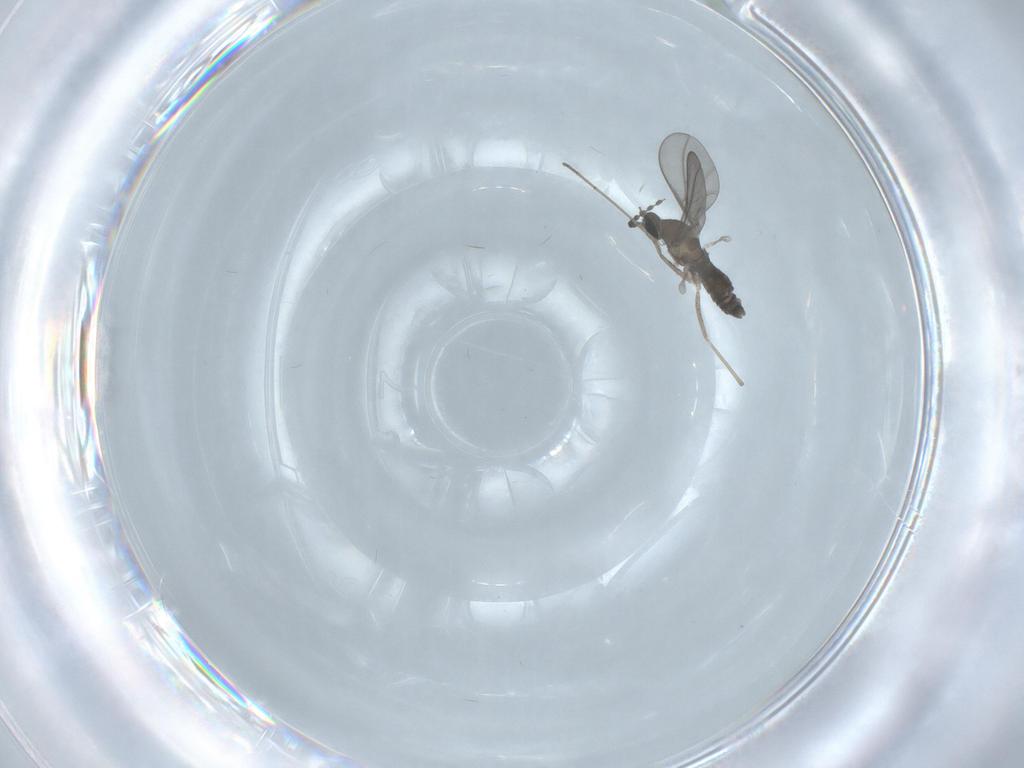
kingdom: Animalia
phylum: Arthropoda
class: Insecta
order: Diptera
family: Cecidomyiidae
